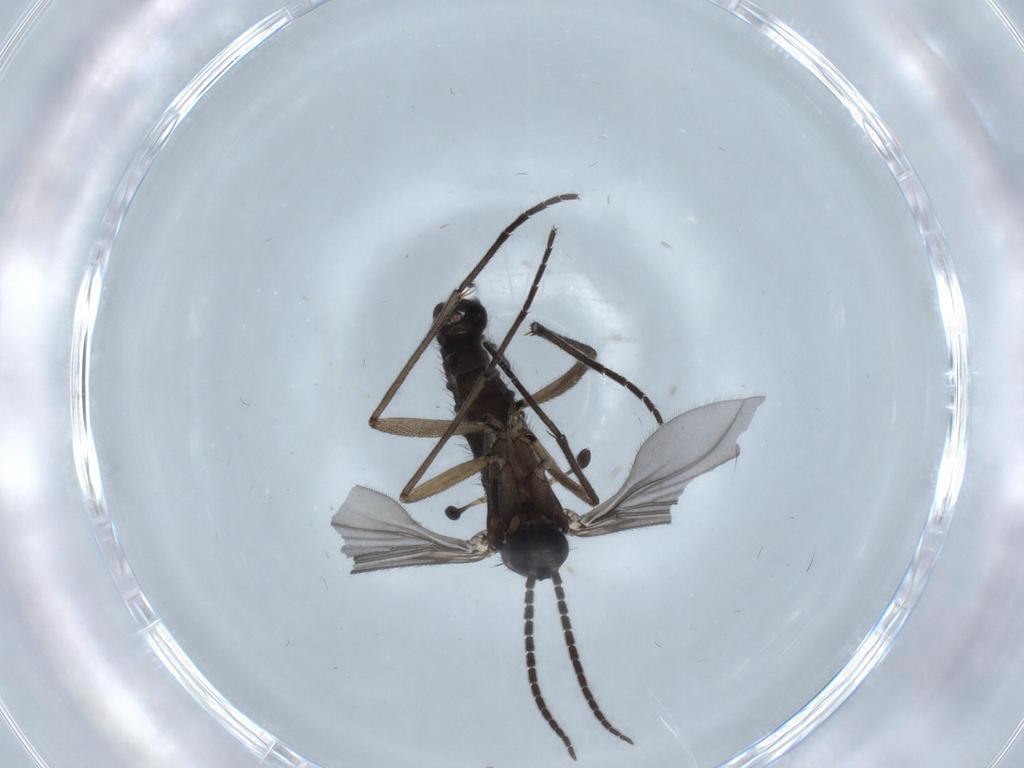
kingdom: Animalia
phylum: Arthropoda
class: Insecta
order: Diptera
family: Sciaridae
